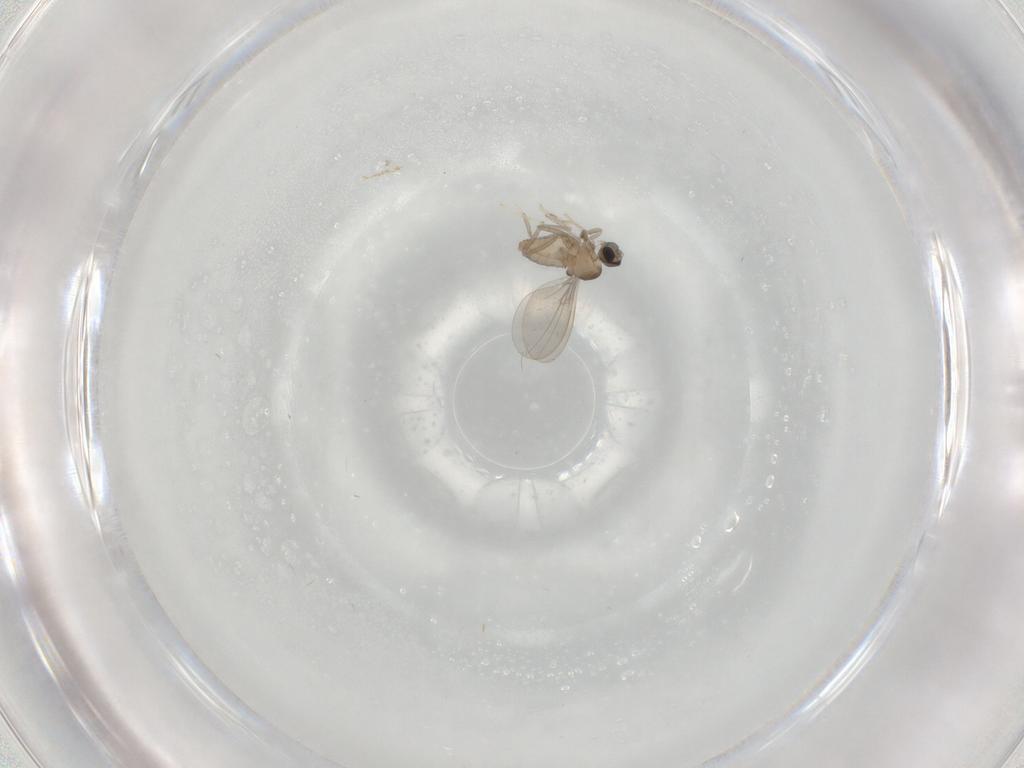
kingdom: Animalia
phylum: Arthropoda
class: Insecta
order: Diptera
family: Cecidomyiidae
